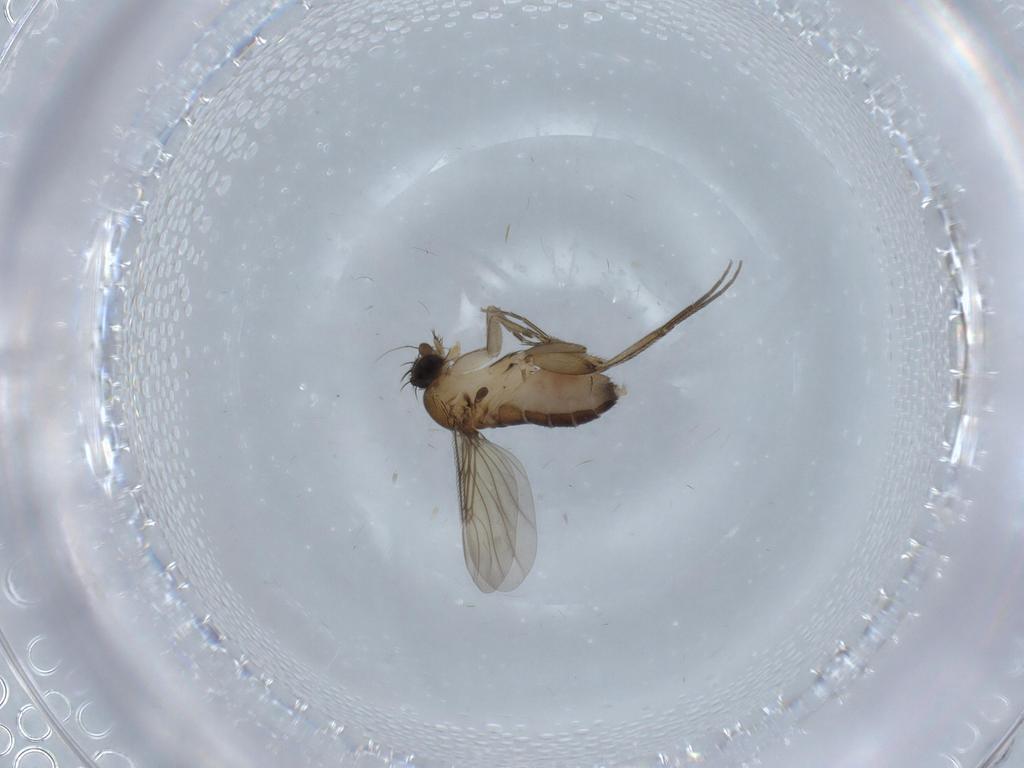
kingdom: Animalia
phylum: Arthropoda
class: Insecta
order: Diptera
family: Phoridae
